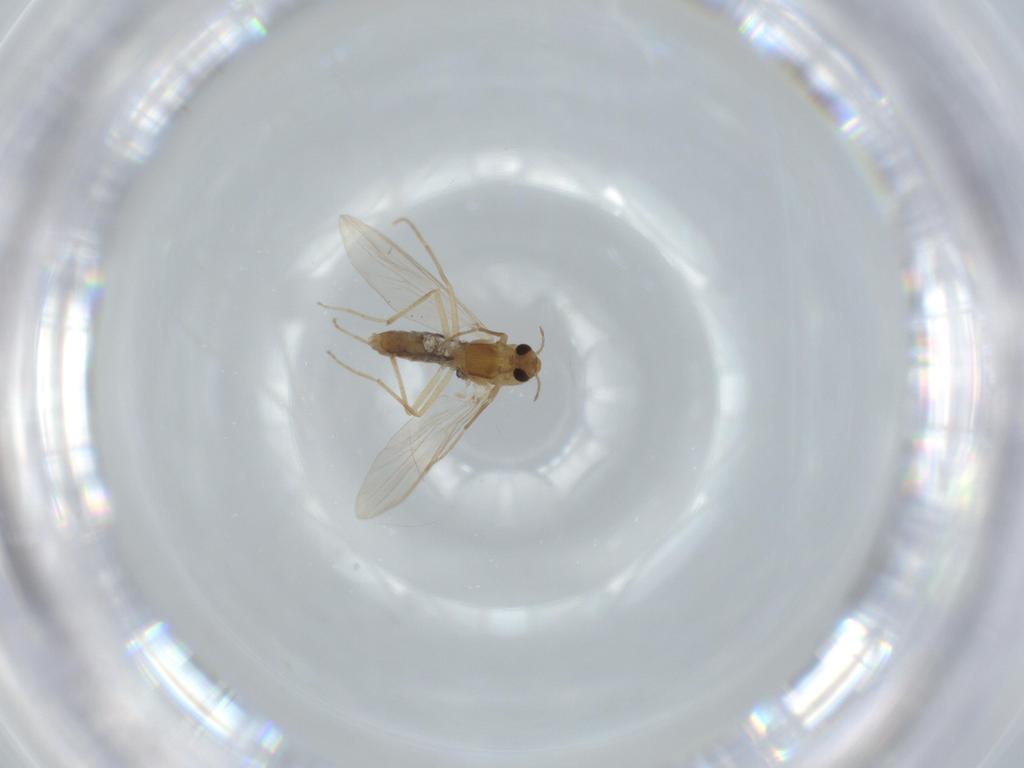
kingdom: Animalia
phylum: Arthropoda
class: Insecta
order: Diptera
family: Chironomidae
